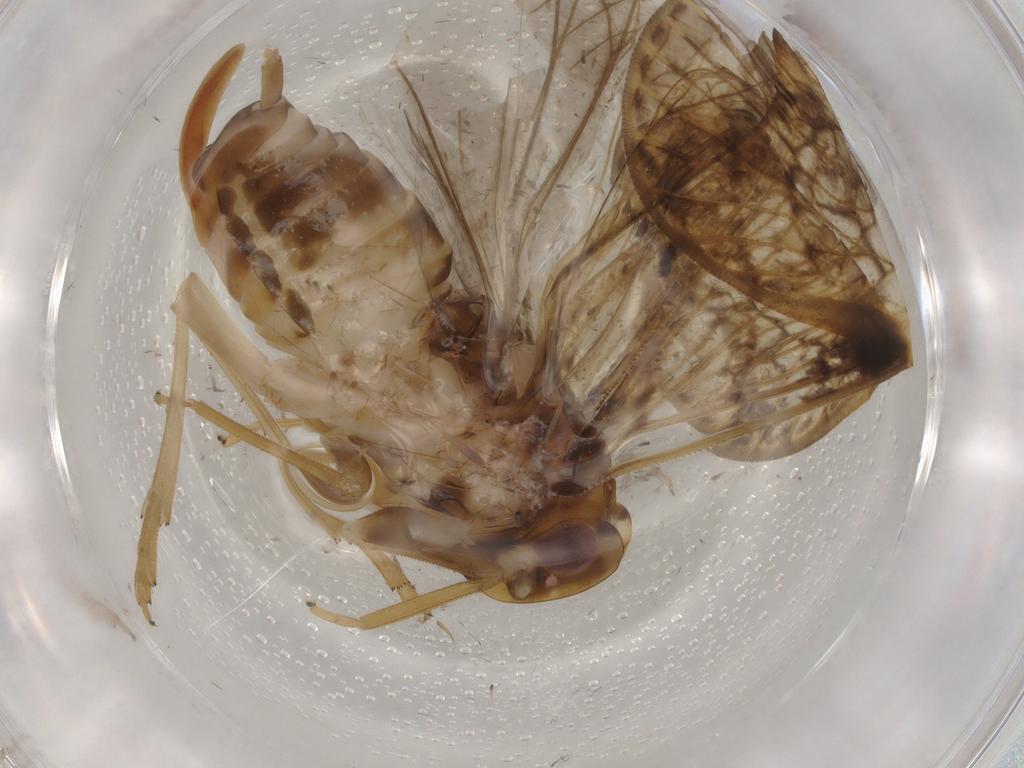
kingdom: Animalia
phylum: Arthropoda
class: Insecta
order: Hemiptera
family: Cixiidae
